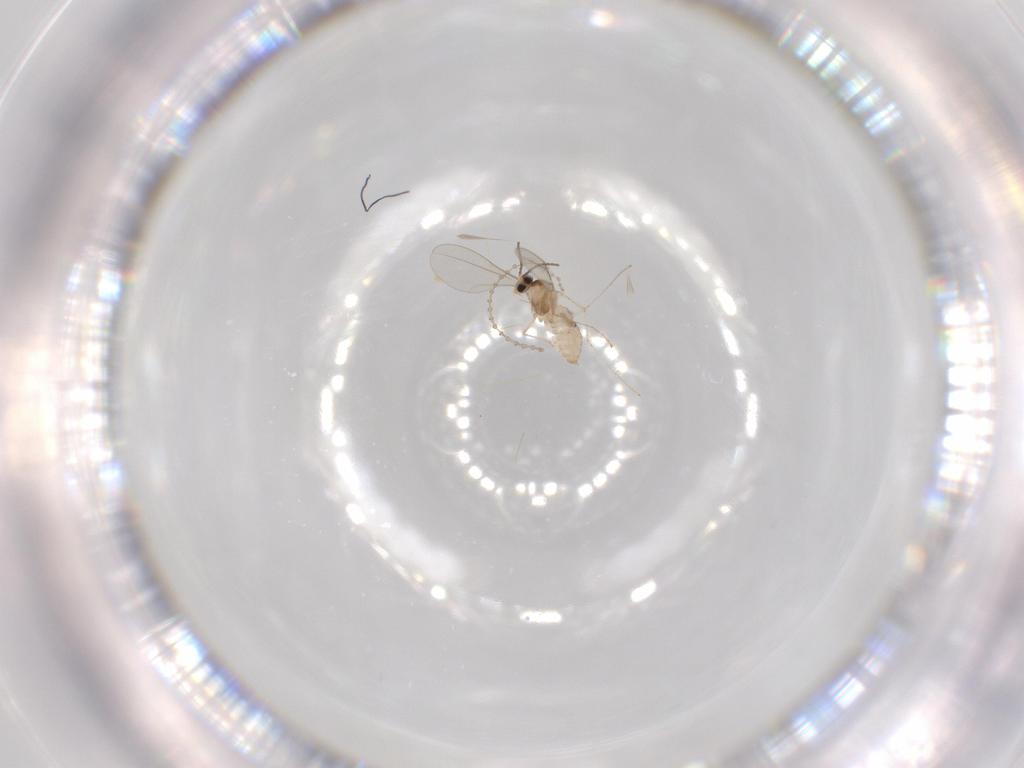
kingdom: Animalia
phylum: Arthropoda
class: Insecta
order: Diptera
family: Cecidomyiidae
